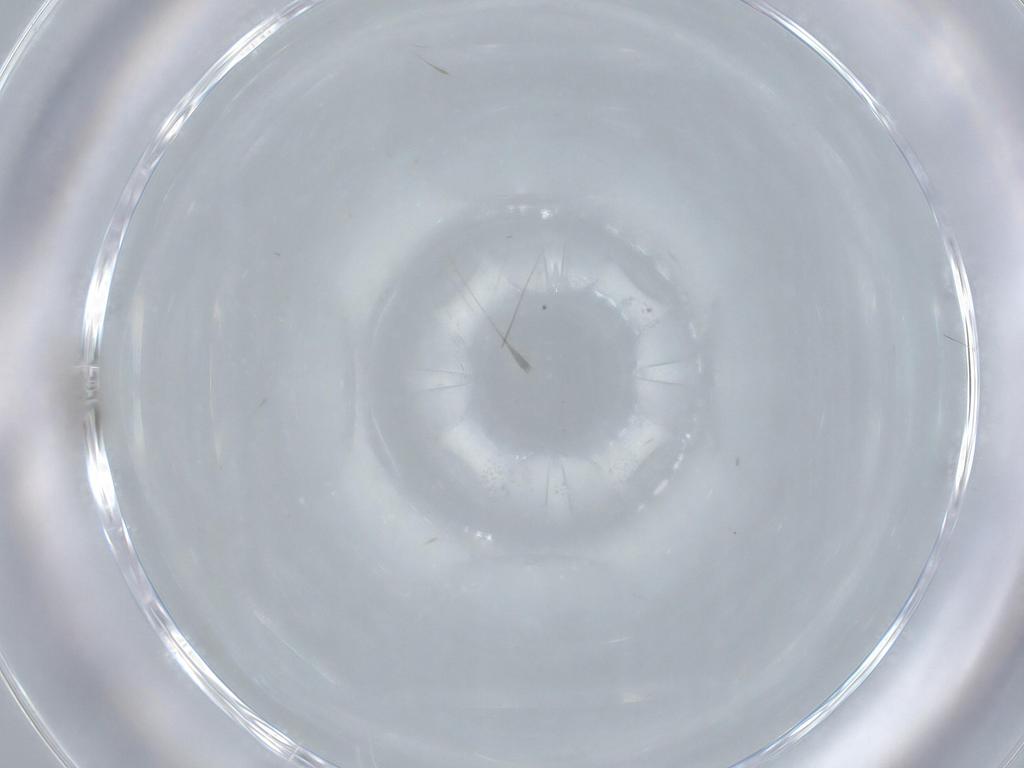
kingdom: Animalia
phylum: Arthropoda
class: Insecta
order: Diptera
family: Cecidomyiidae
